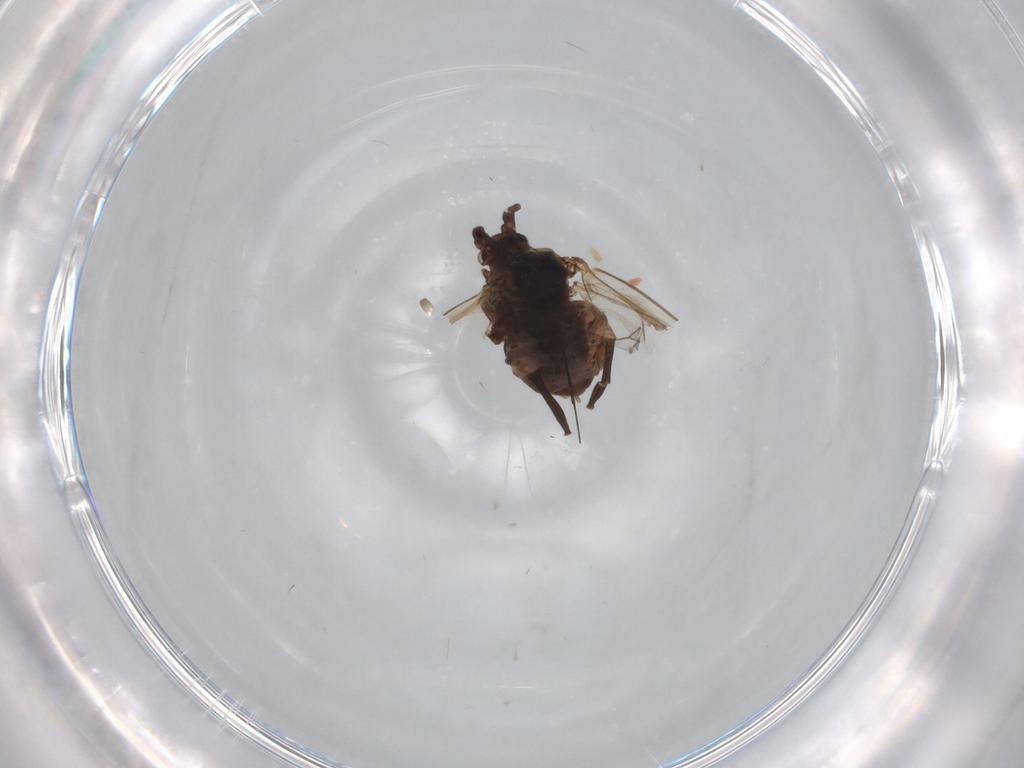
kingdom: Animalia
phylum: Arthropoda
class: Insecta
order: Hemiptera
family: Aphididae
